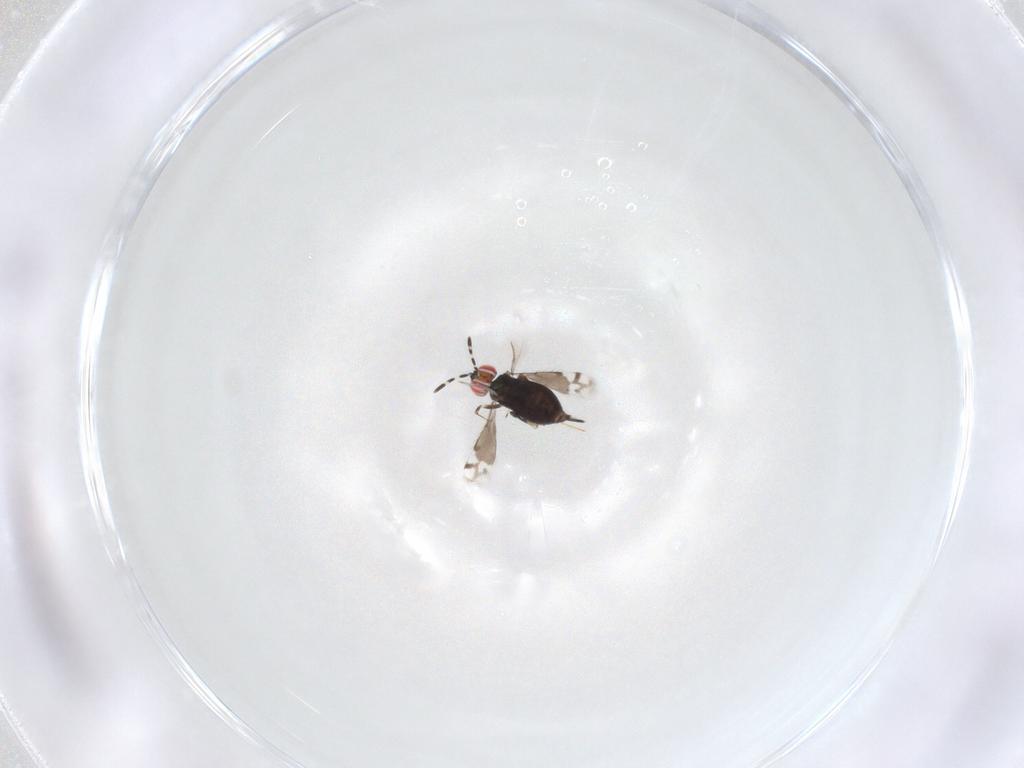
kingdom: Animalia
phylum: Arthropoda
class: Insecta
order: Hymenoptera
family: Azotidae
